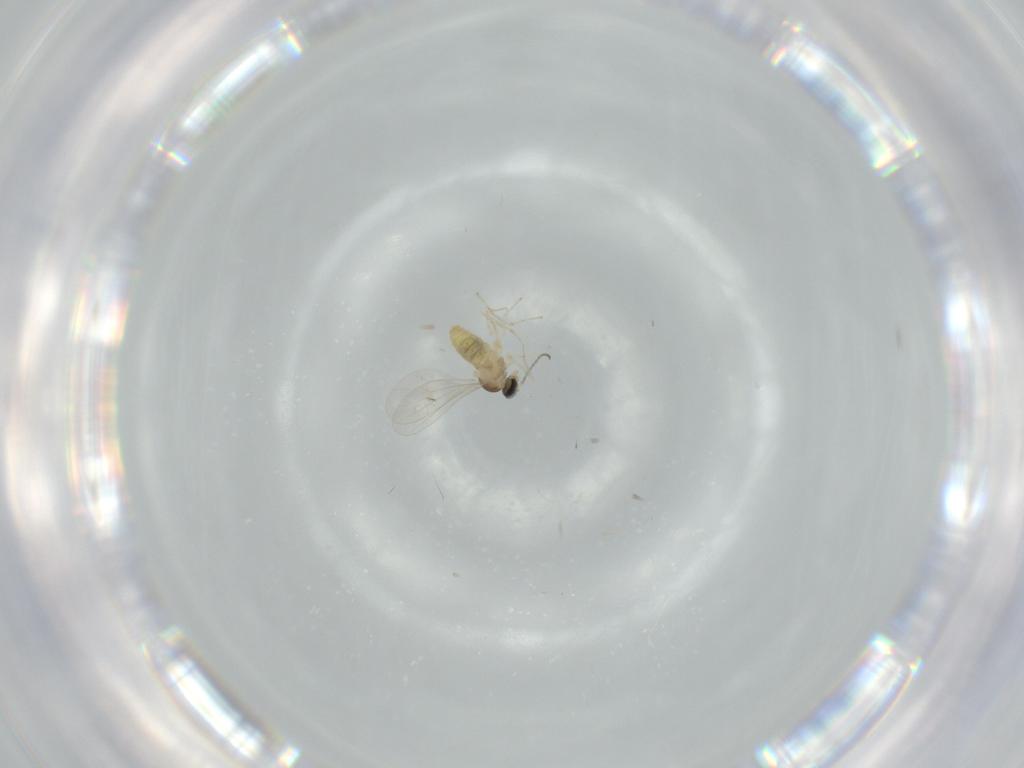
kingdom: Animalia
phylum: Arthropoda
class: Insecta
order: Diptera
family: Cecidomyiidae
